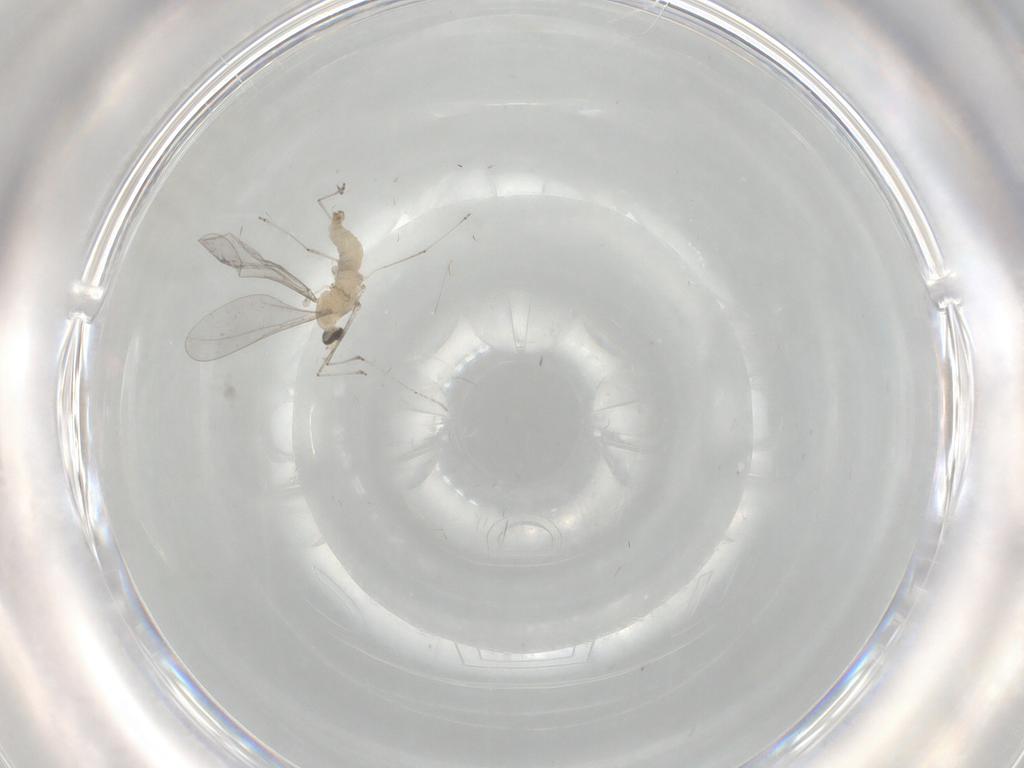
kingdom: Animalia
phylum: Arthropoda
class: Insecta
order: Diptera
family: Cecidomyiidae
